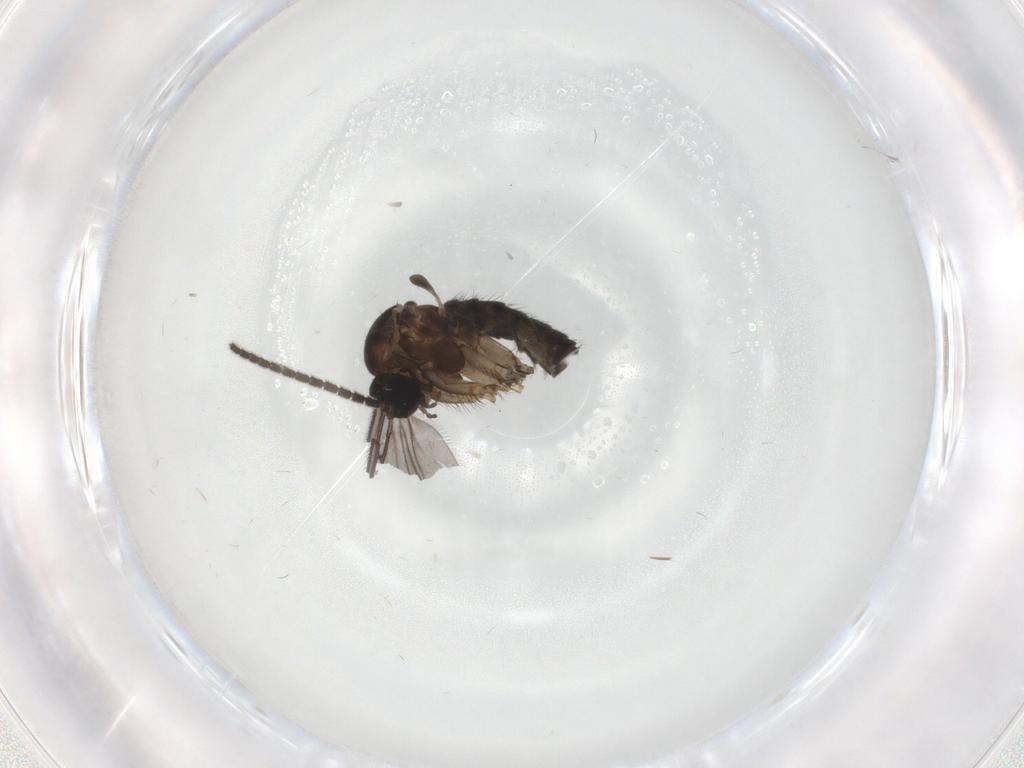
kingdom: Animalia
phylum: Arthropoda
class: Insecta
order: Diptera
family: Sciaridae
